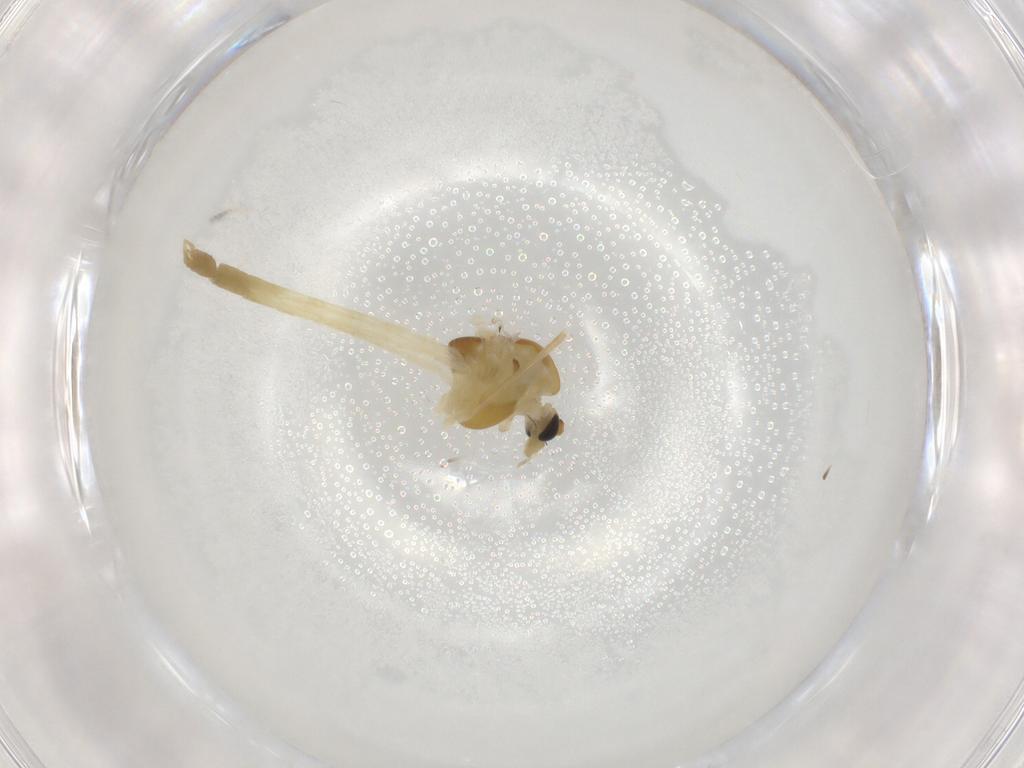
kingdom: Animalia
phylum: Arthropoda
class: Insecta
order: Diptera
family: Chironomidae
